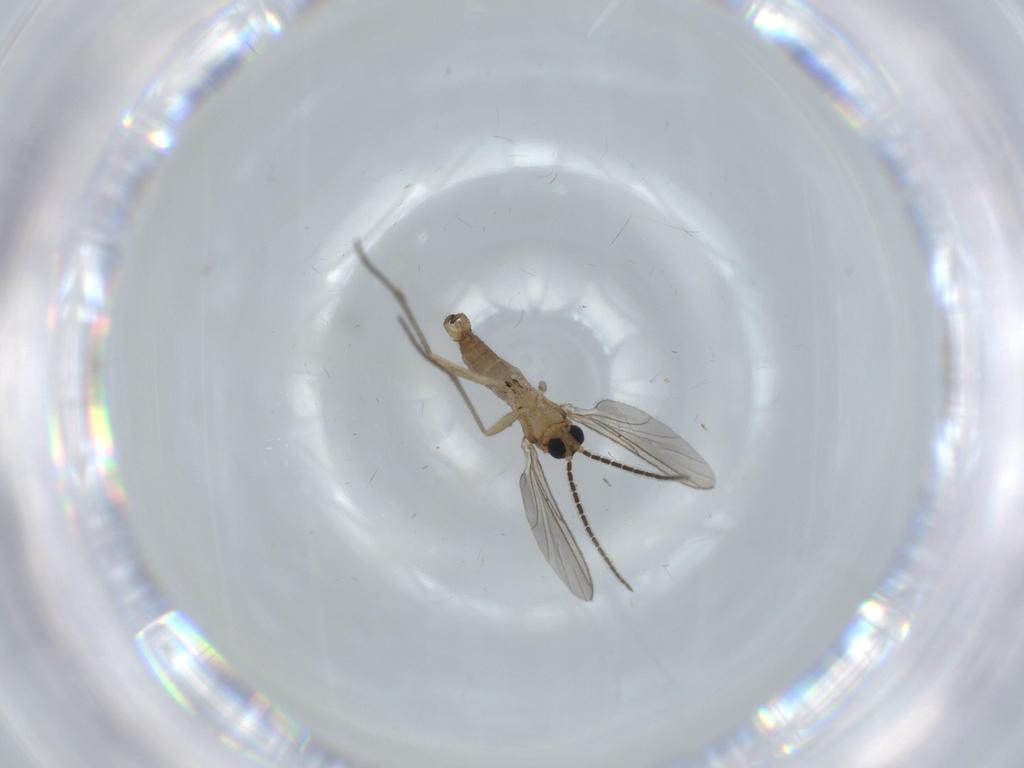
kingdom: Animalia
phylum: Arthropoda
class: Insecta
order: Diptera
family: Sciaridae
